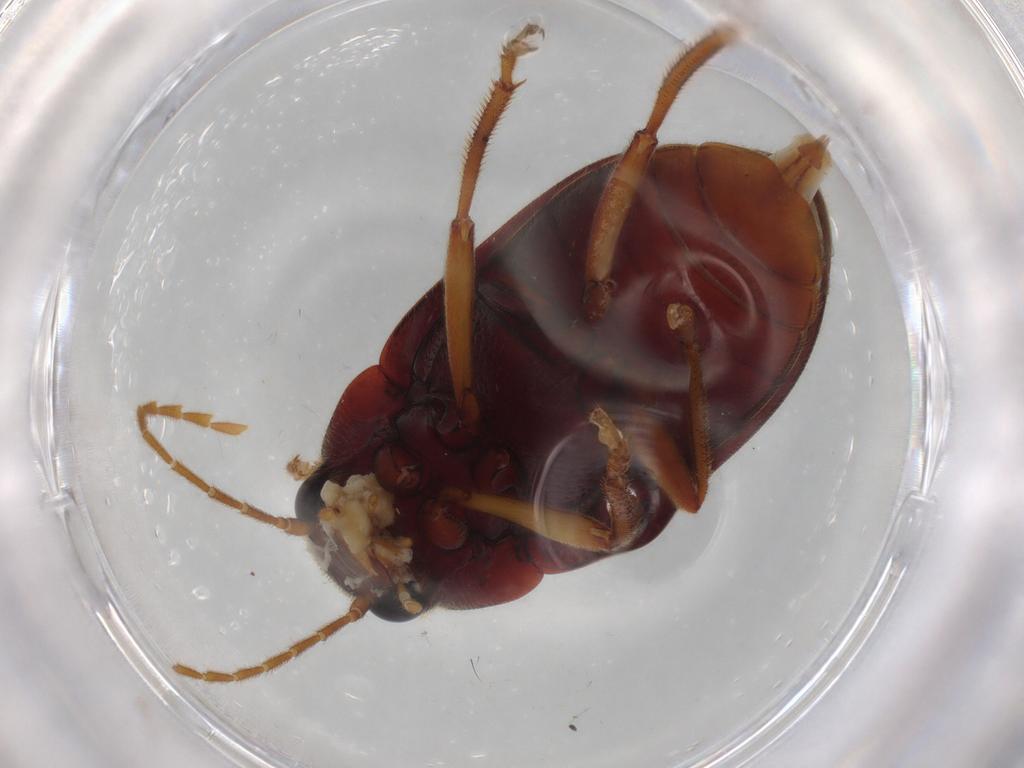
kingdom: Animalia
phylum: Arthropoda
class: Insecta
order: Coleoptera
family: Ptilodactylidae
